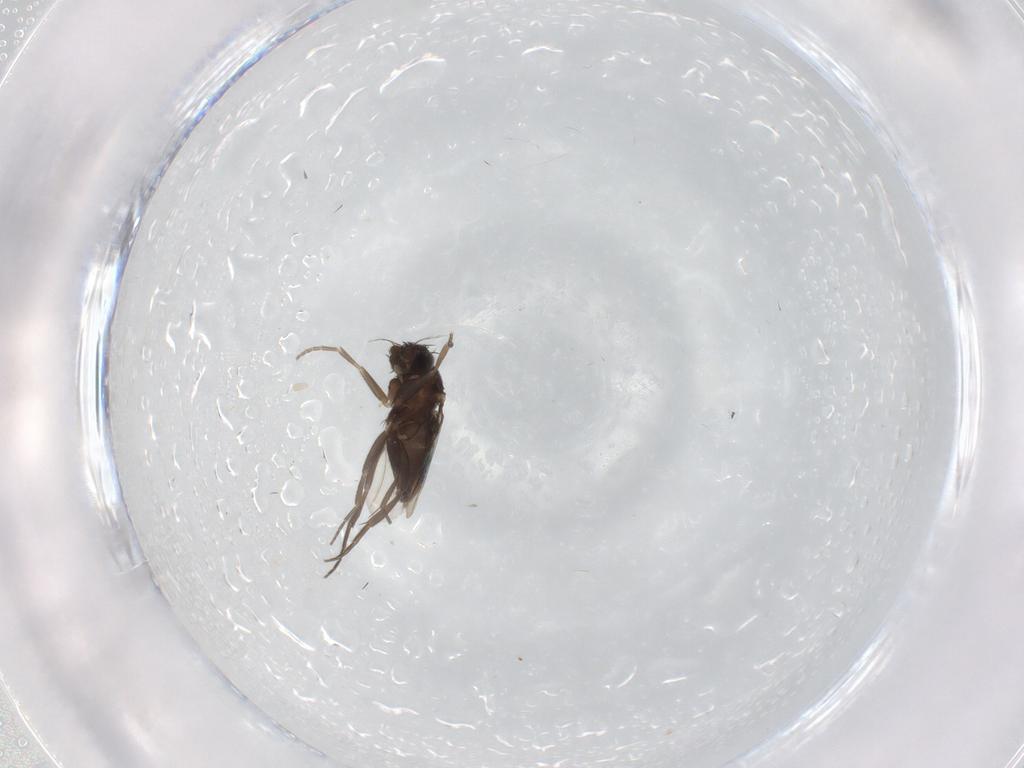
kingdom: Animalia
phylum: Arthropoda
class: Insecta
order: Diptera
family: Phoridae
